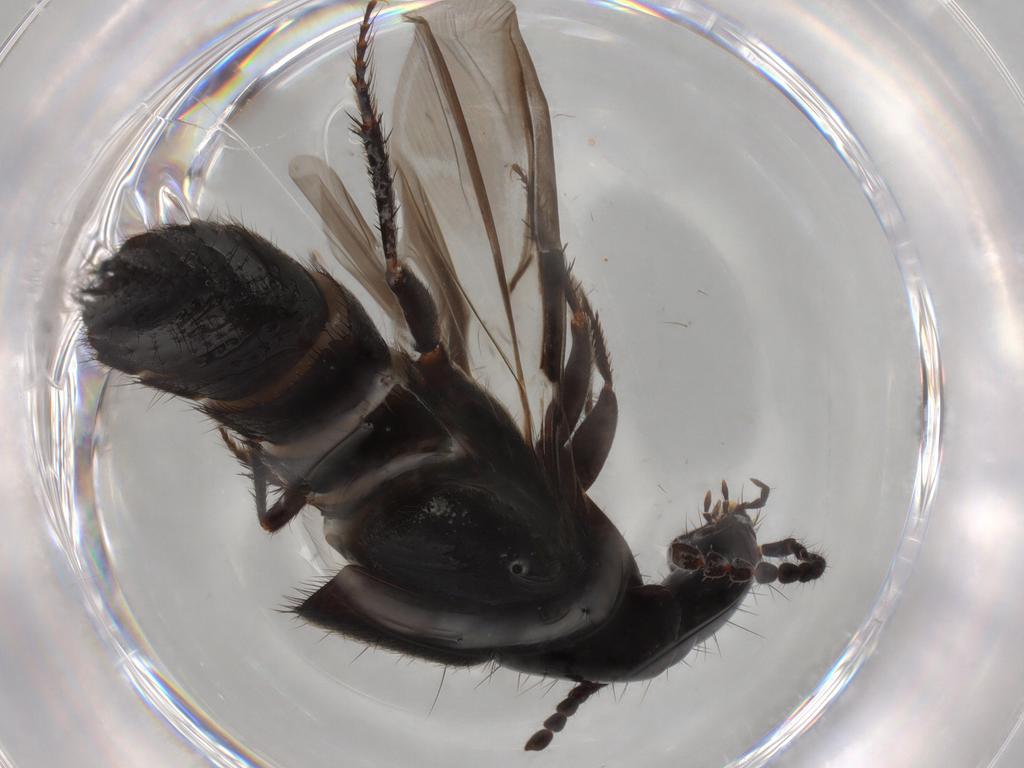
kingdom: Animalia
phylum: Arthropoda
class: Insecta
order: Coleoptera
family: Staphylinidae
